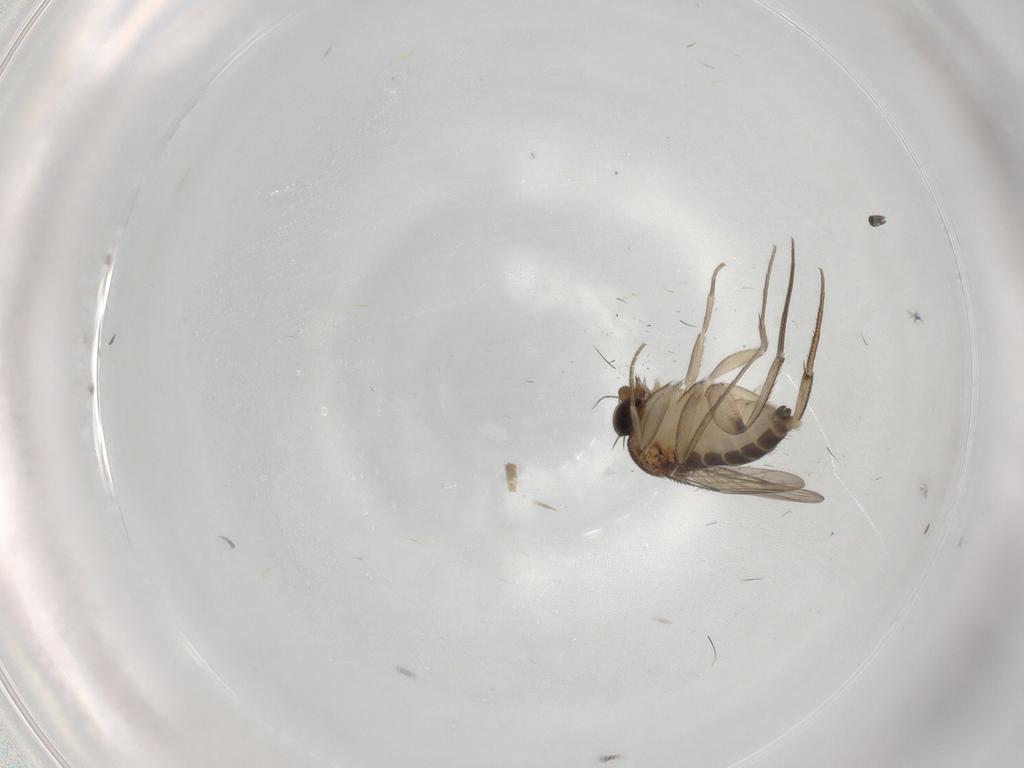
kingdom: Animalia
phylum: Arthropoda
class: Insecta
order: Diptera
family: Phoridae
